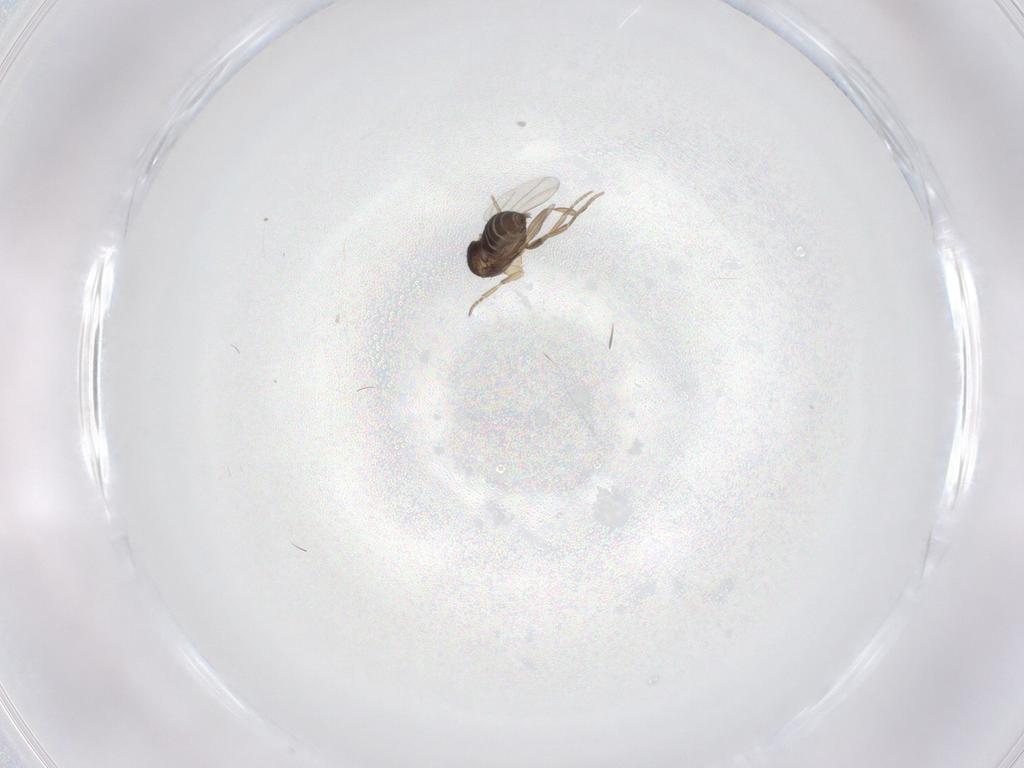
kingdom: Animalia
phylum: Arthropoda
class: Insecta
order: Diptera
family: Phoridae
